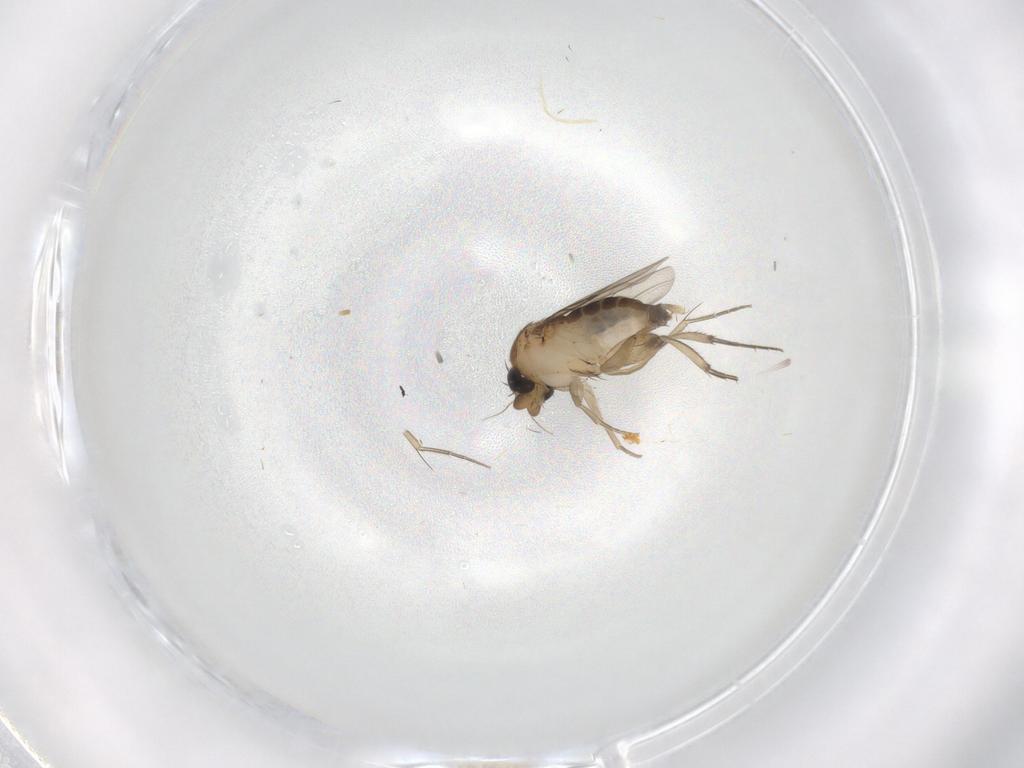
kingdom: Animalia
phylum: Arthropoda
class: Insecta
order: Diptera
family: Phoridae
